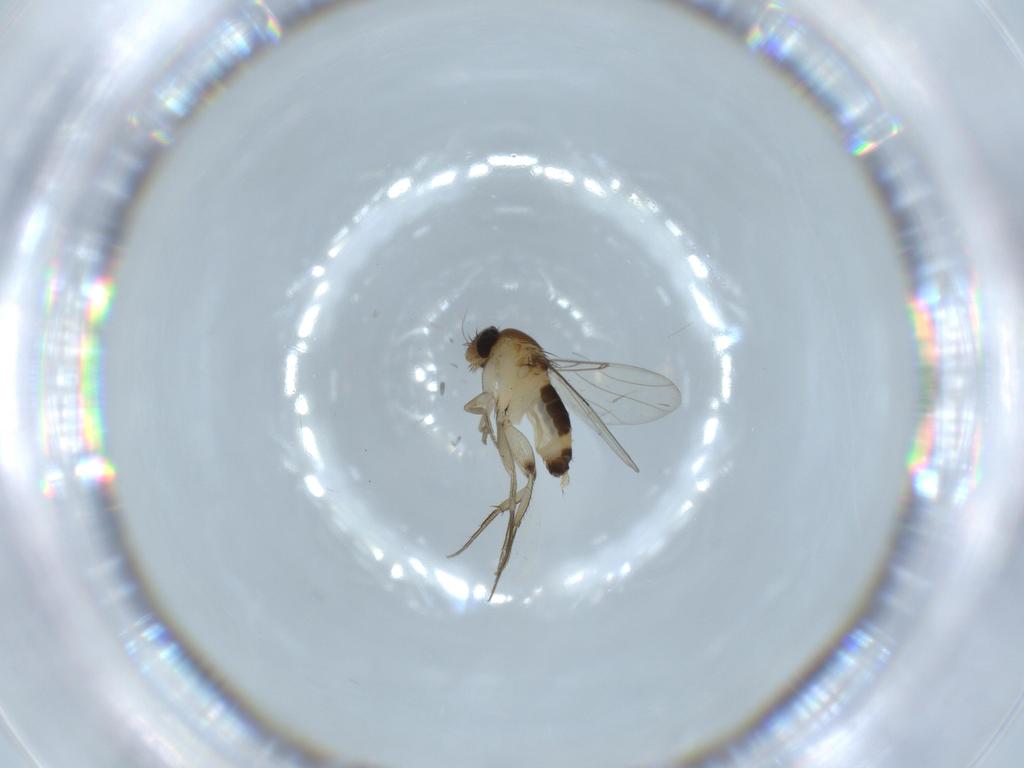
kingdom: Animalia
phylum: Arthropoda
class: Insecta
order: Diptera
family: Phoridae
